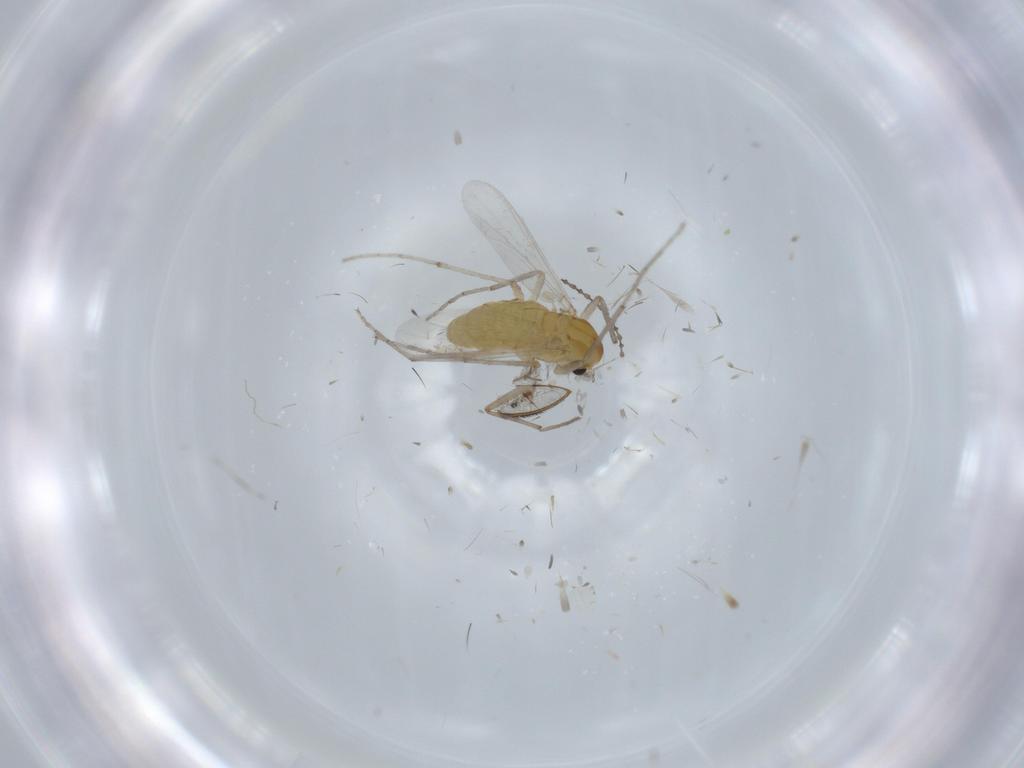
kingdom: Animalia
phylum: Arthropoda
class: Insecta
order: Diptera
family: Chironomidae
